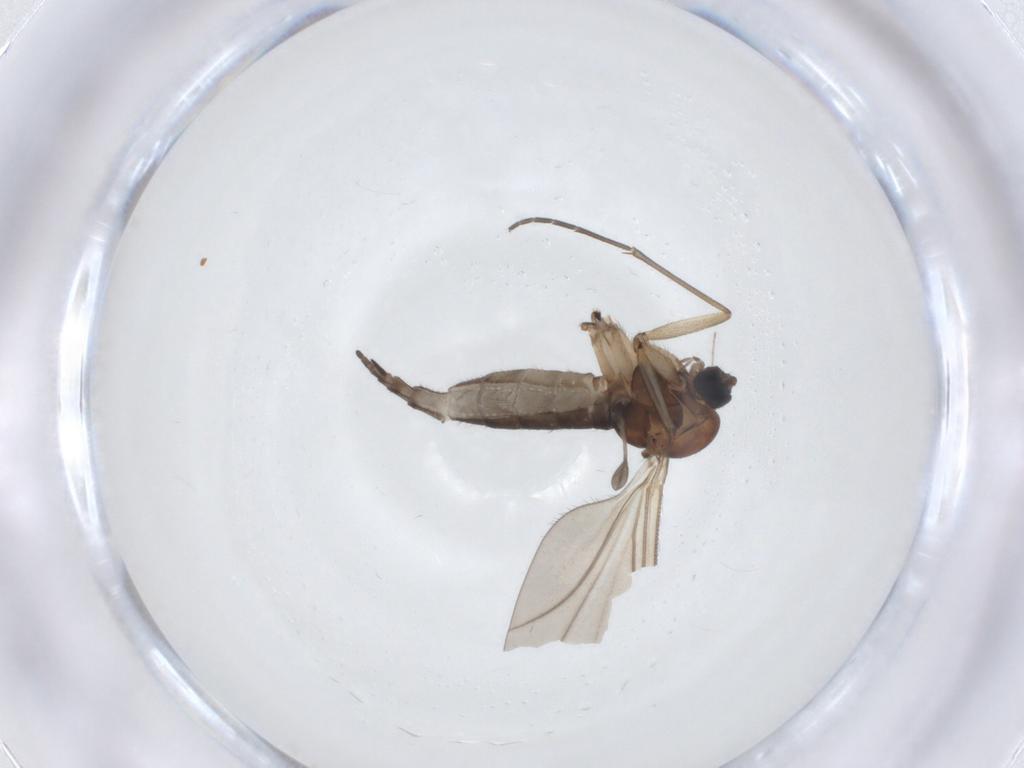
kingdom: Animalia
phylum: Arthropoda
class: Insecta
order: Diptera
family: Sciaridae
